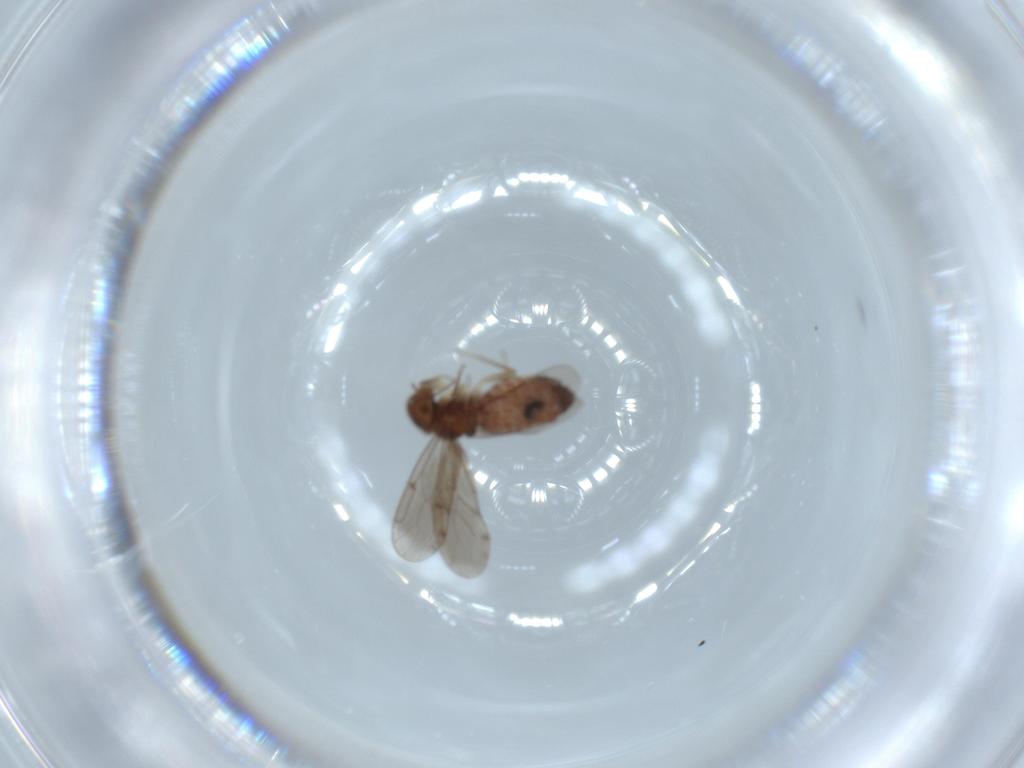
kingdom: Animalia
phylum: Arthropoda
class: Insecta
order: Psocodea
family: Ectopsocidae
